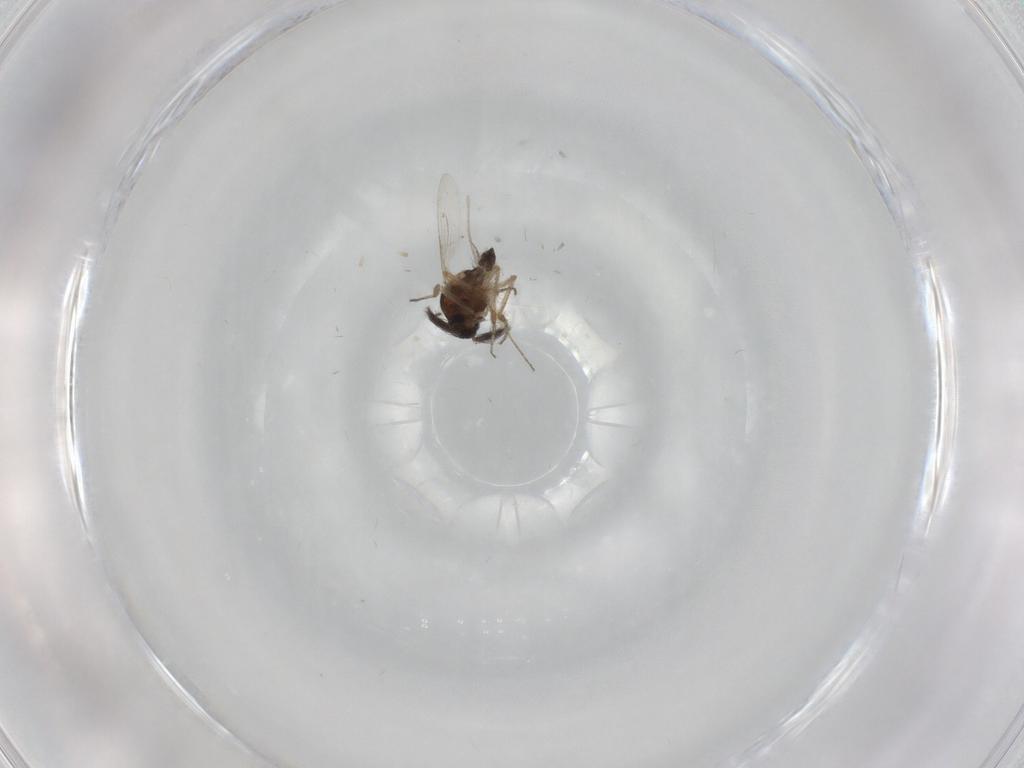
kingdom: Animalia
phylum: Arthropoda
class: Insecta
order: Diptera
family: Ceratopogonidae
